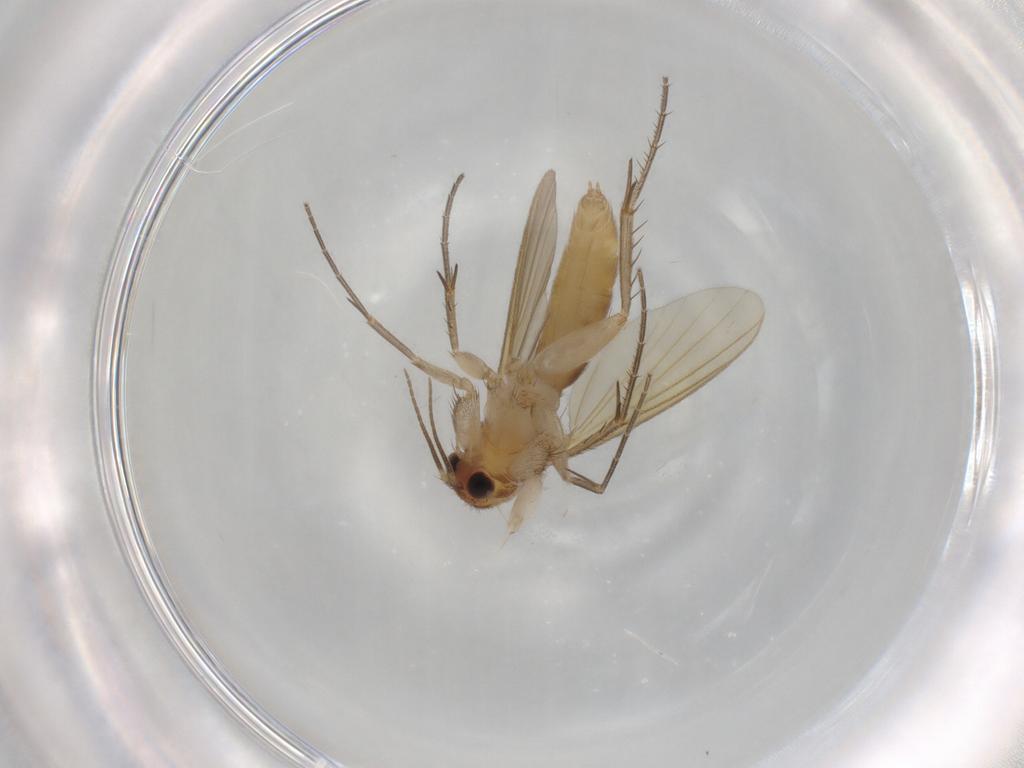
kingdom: Animalia
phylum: Arthropoda
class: Insecta
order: Diptera
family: Mycetophilidae
